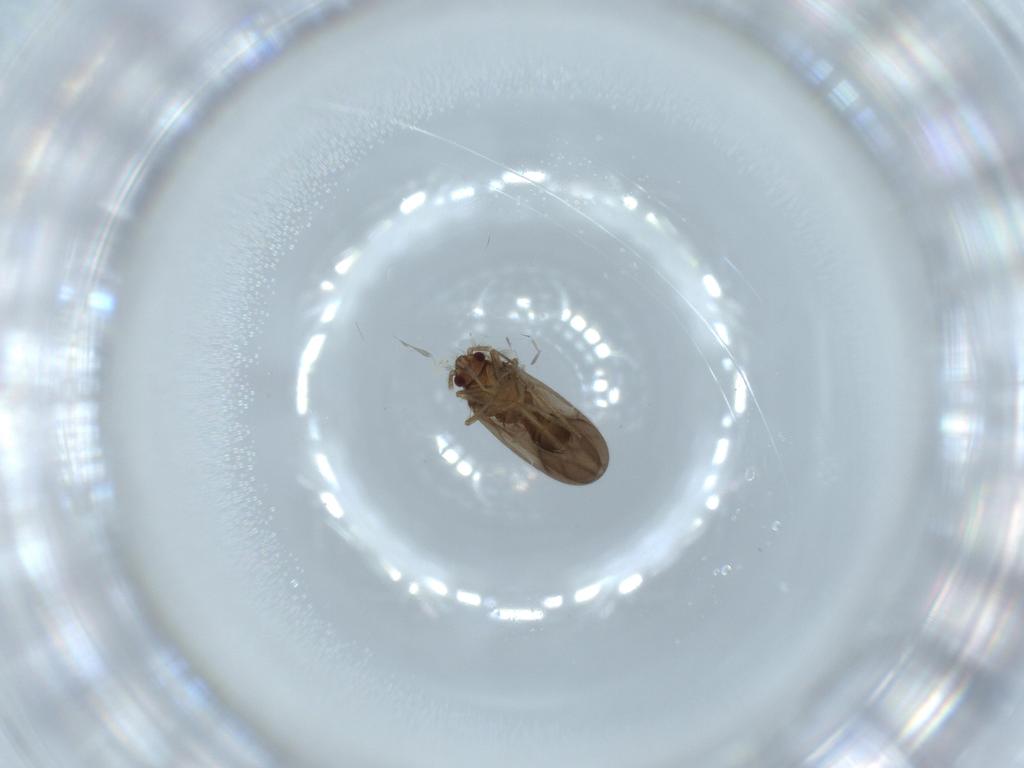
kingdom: Animalia
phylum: Arthropoda
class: Insecta
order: Hemiptera
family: Ceratocombidae
